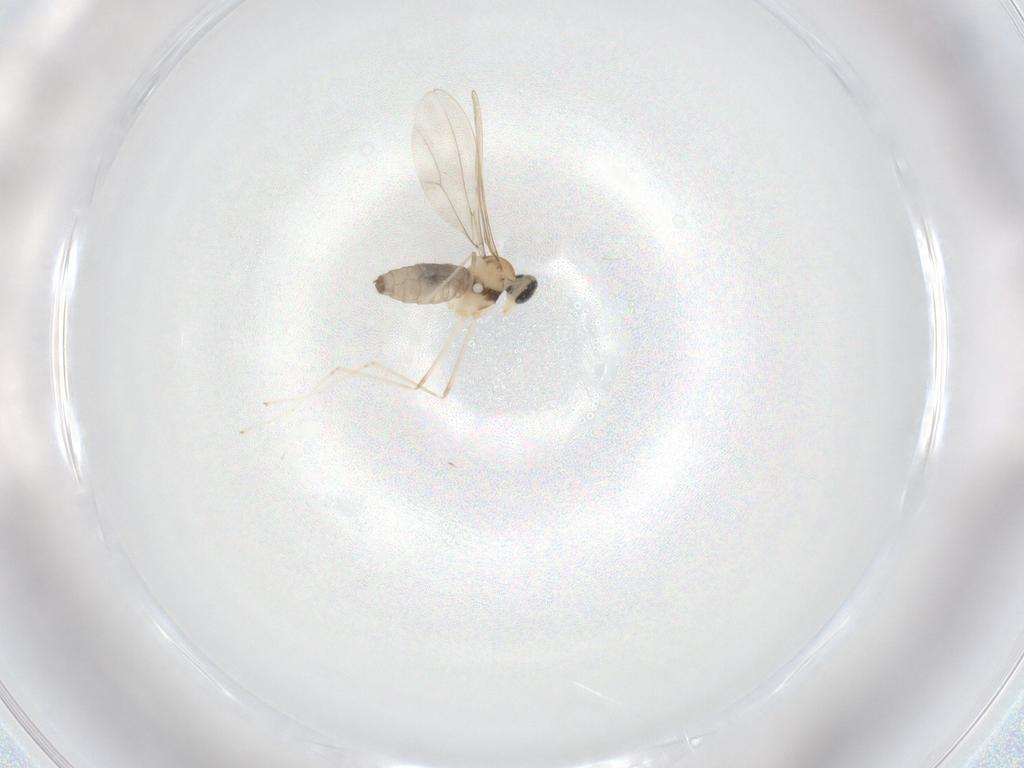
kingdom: Animalia
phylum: Arthropoda
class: Insecta
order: Diptera
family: Cecidomyiidae
